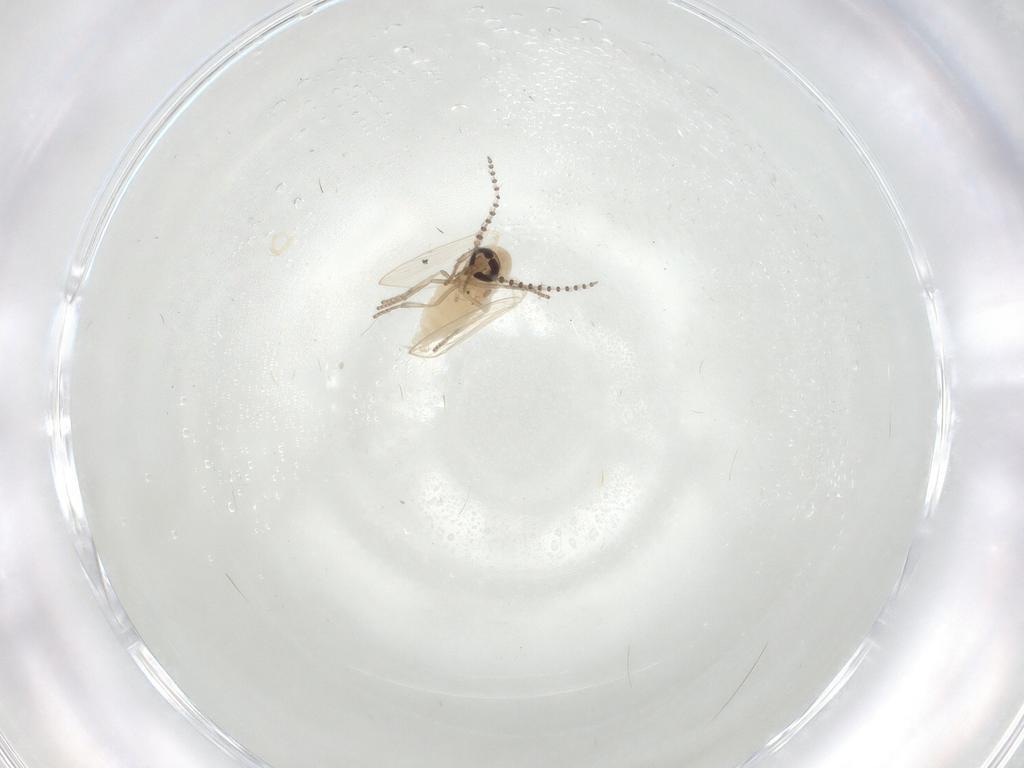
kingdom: Animalia
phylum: Arthropoda
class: Insecta
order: Diptera
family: Psychodidae
